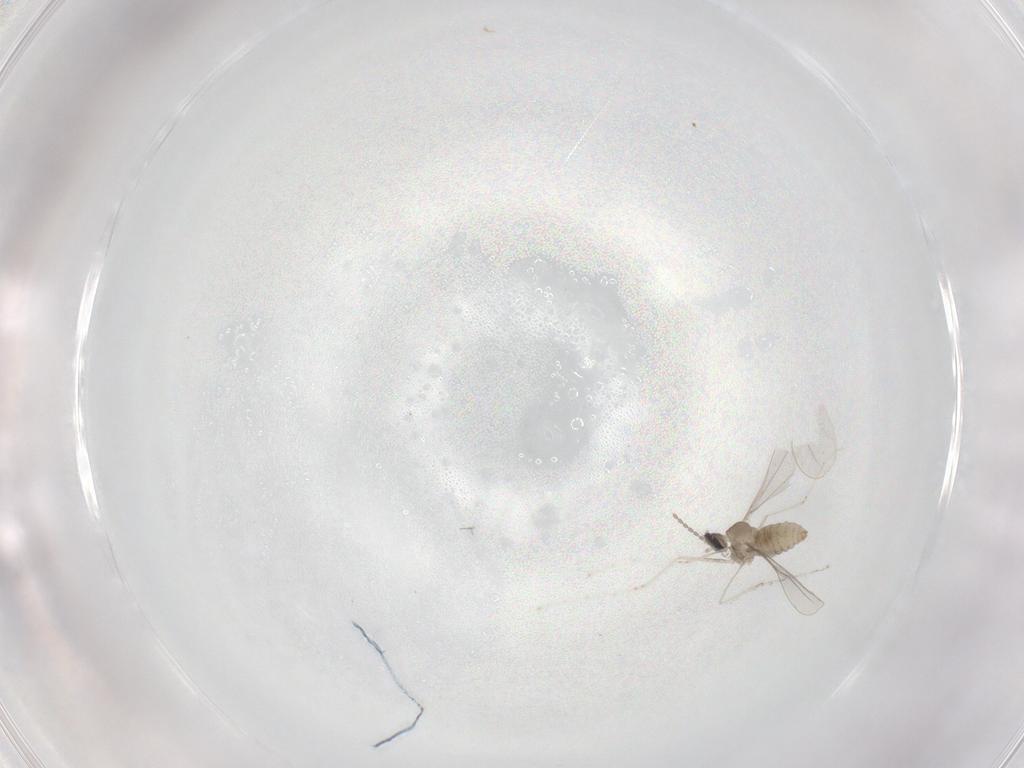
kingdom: Animalia
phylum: Arthropoda
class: Insecta
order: Diptera
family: Cecidomyiidae
